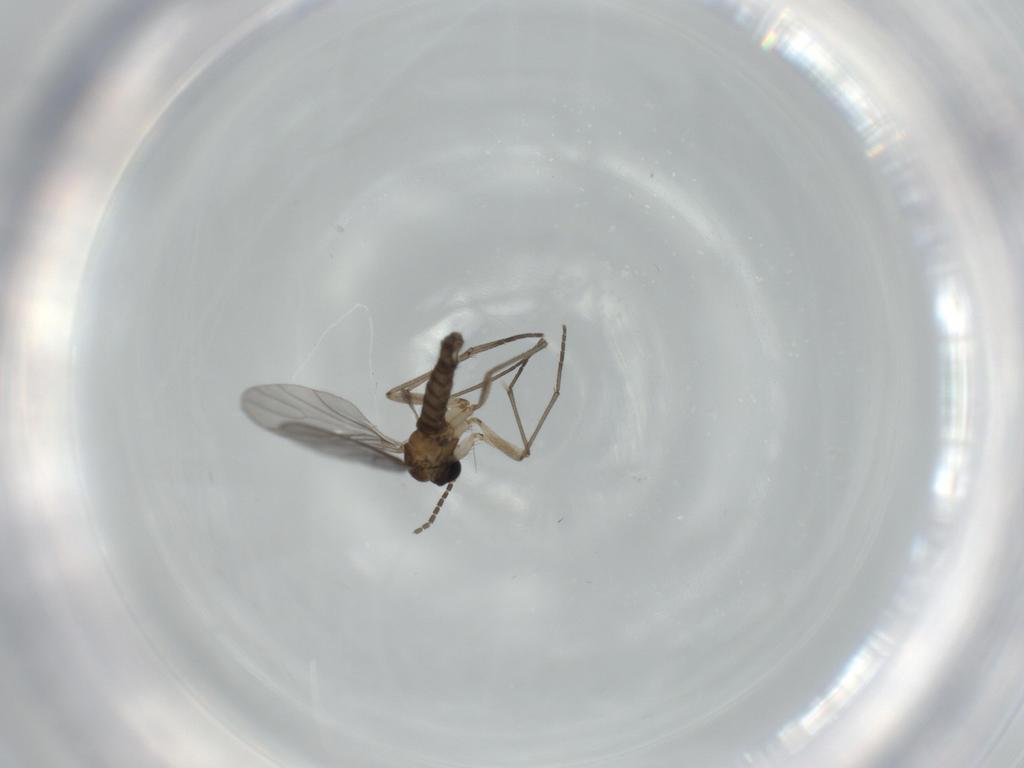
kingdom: Animalia
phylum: Arthropoda
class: Insecta
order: Diptera
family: Sciaridae
